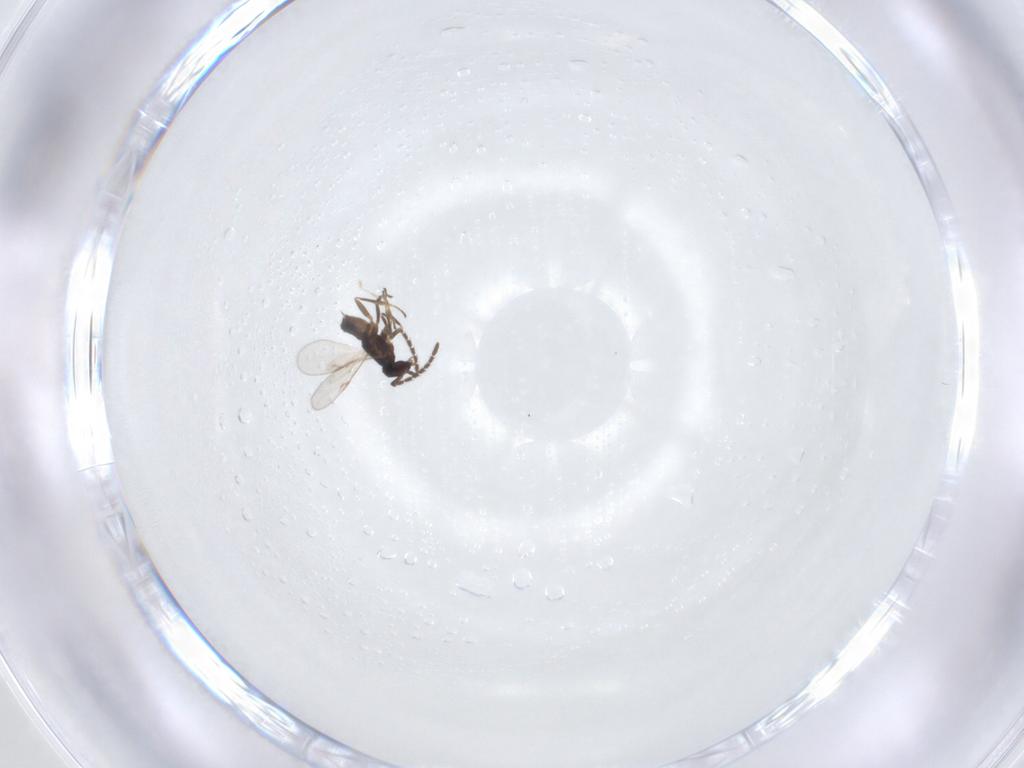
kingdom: Animalia
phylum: Arthropoda
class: Insecta
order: Hymenoptera
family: Encyrtidae
